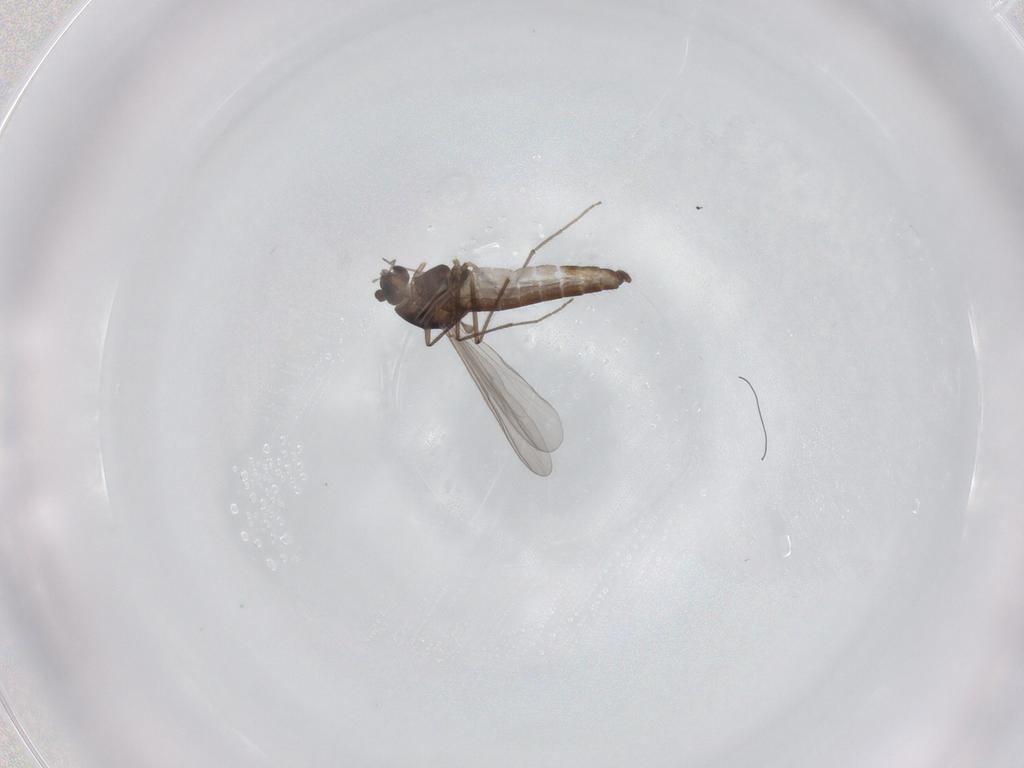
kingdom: Animalia
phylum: Arthropoda
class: Insecta
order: Diptera
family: Chironomidae
